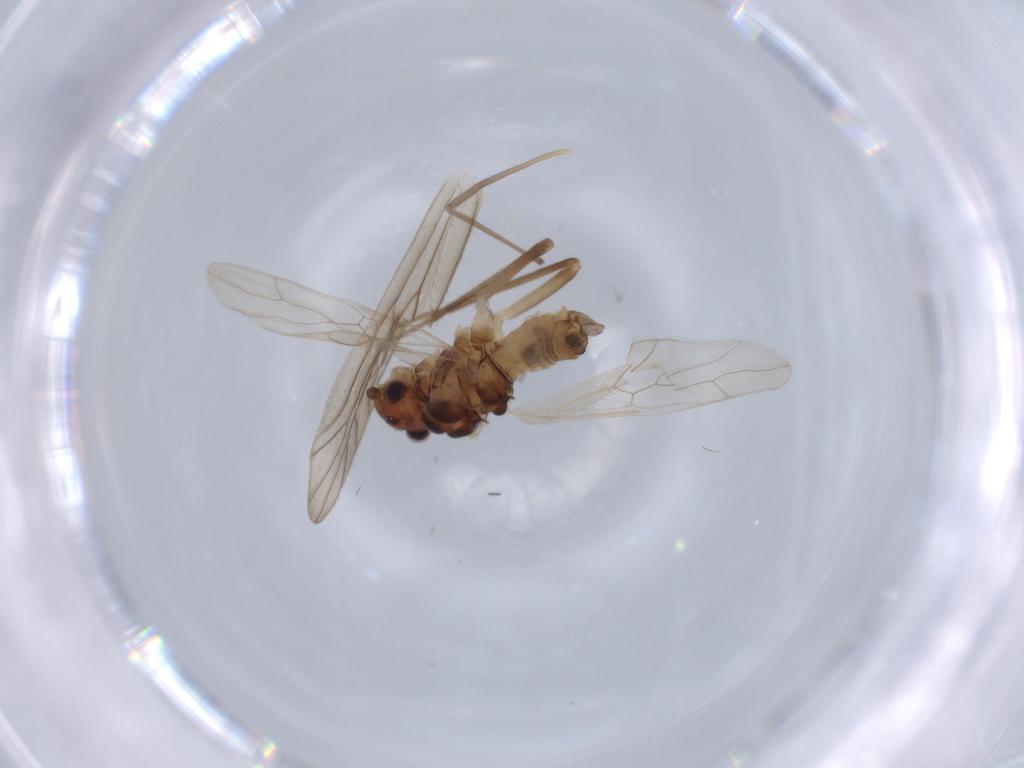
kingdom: Animalia
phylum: Arthropoda
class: Insecta
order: Psocodea
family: Caeciliusidae
